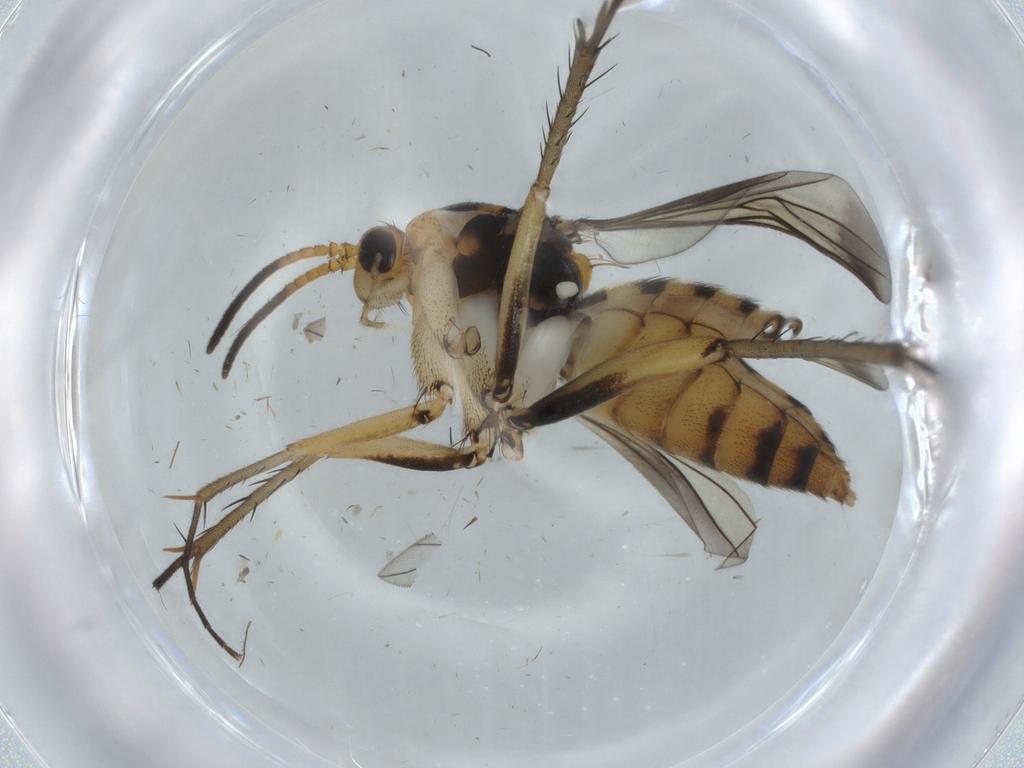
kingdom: Animalia
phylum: Arthropoda
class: Insecta
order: Diptera
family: Mycetophilidae
